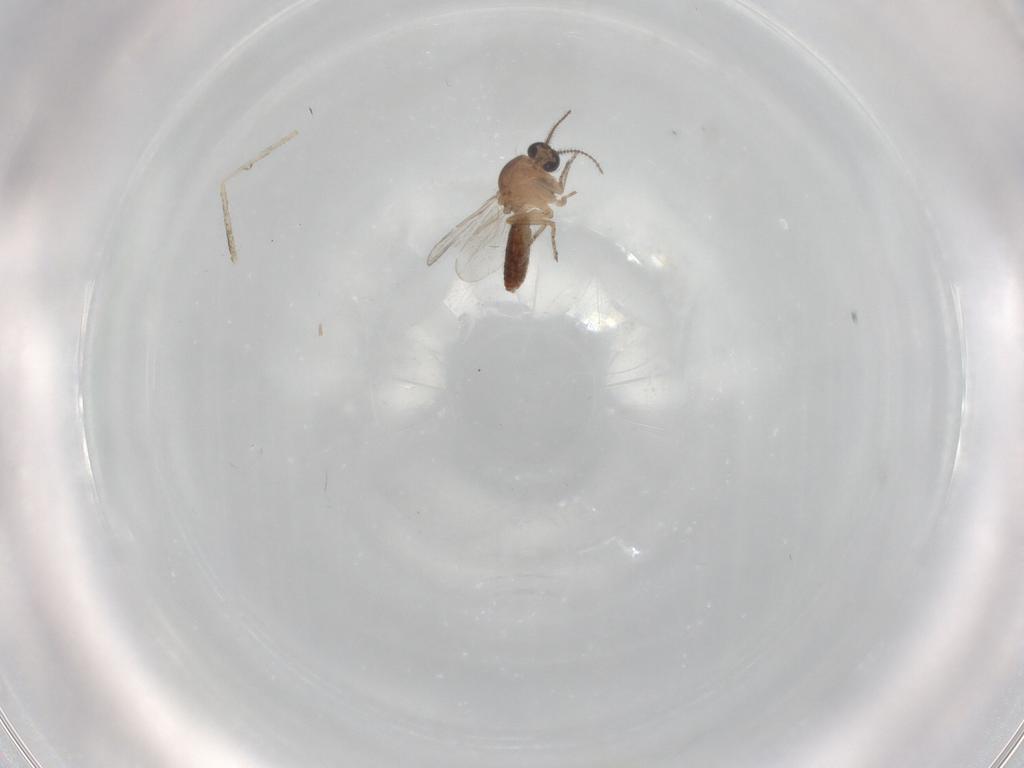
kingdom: Animalia
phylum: Arthropoda
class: Insecta
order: Diptera
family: Ceratopogonidae
